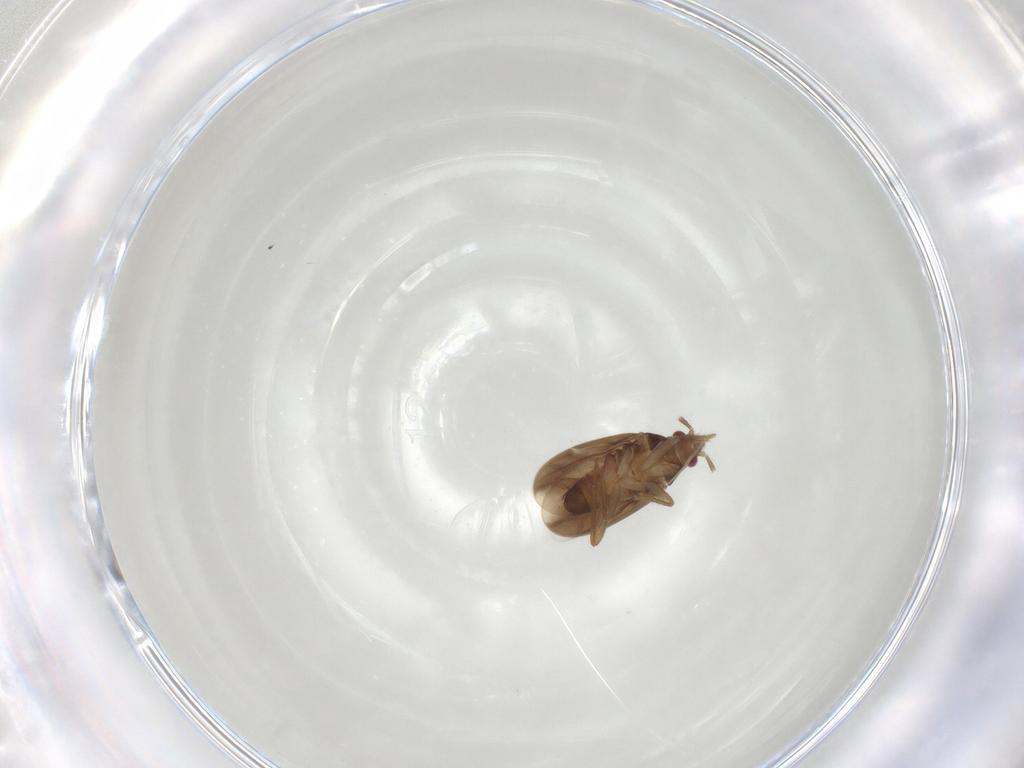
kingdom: Animalia
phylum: Arthropoda
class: Insecta
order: Hemiptera
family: Ceratocombidae
